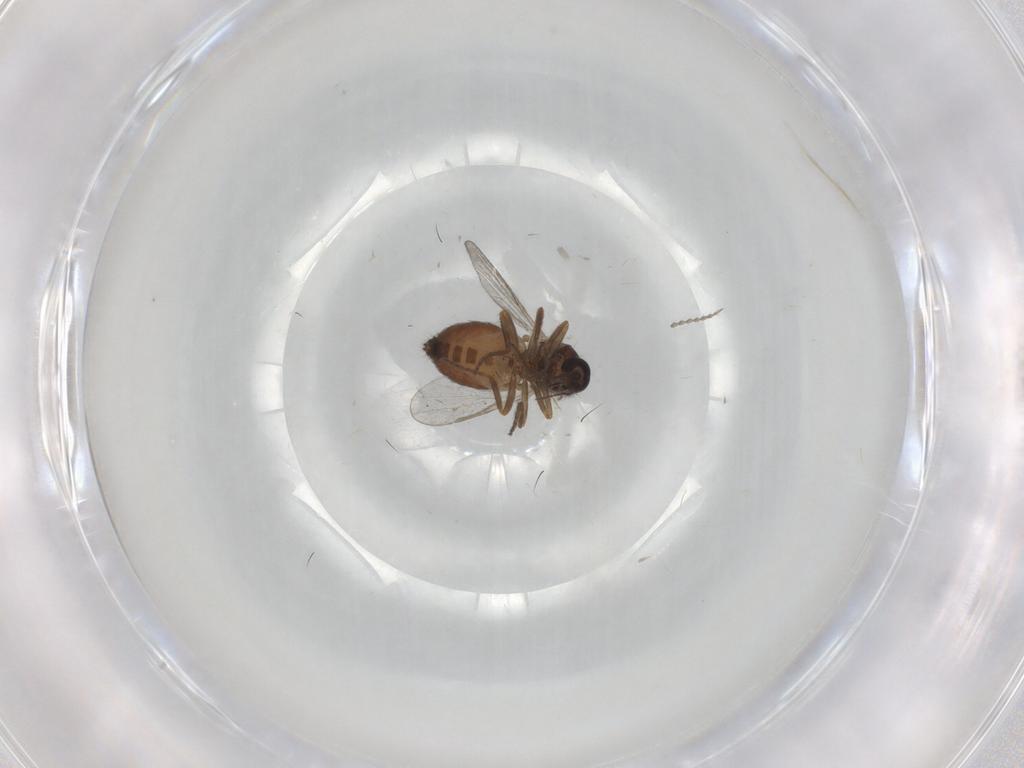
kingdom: Animalia
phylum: Arthropoda
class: Insecta
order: Diptera
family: Ceratopogonidae
